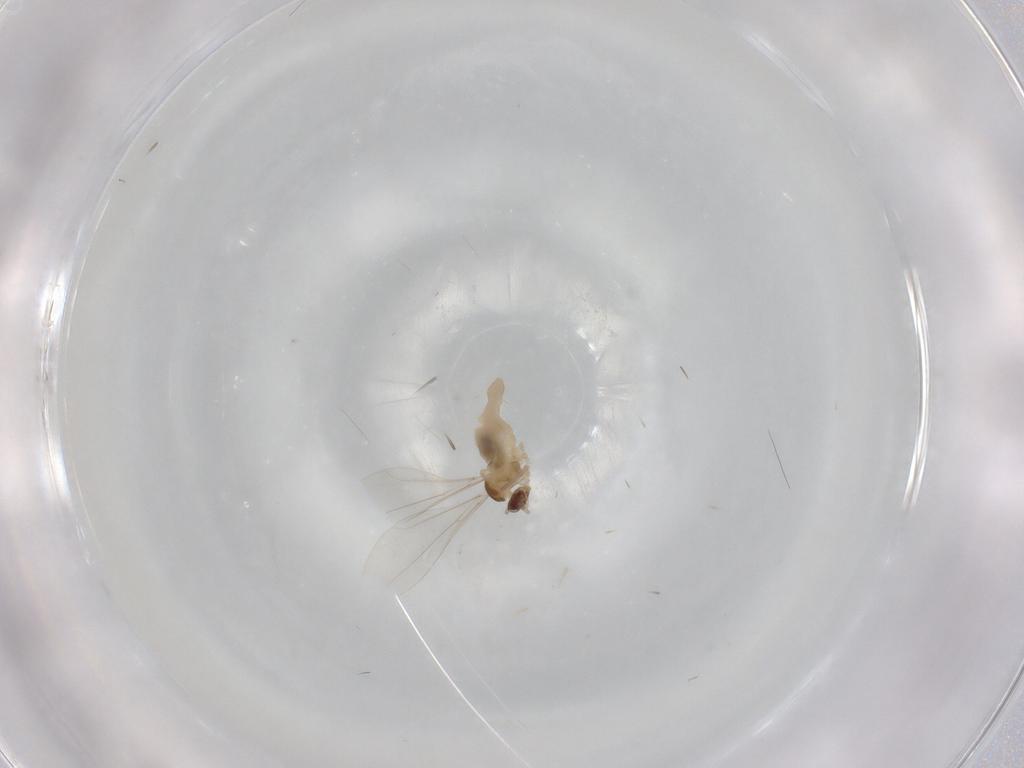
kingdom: Animalia
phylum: Arthropoda
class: Insecta
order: Diptera
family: Cecidomyiidae
